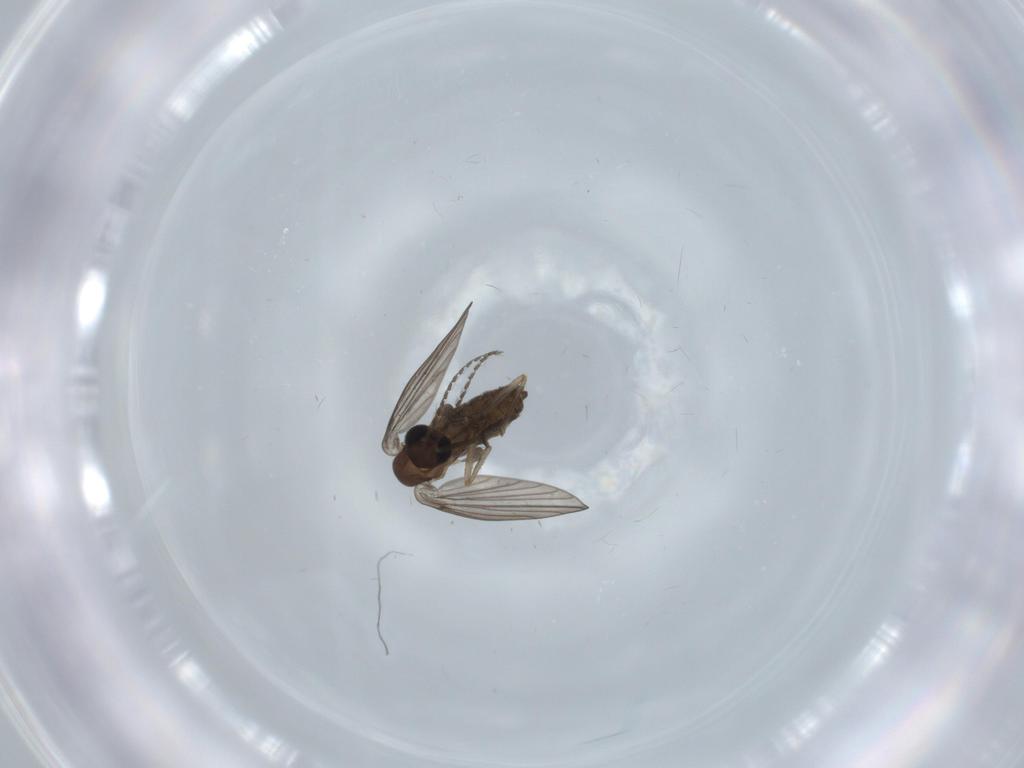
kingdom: Animalia
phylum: Arthropoda
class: Insecta
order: Diptera
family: Psychodidae
